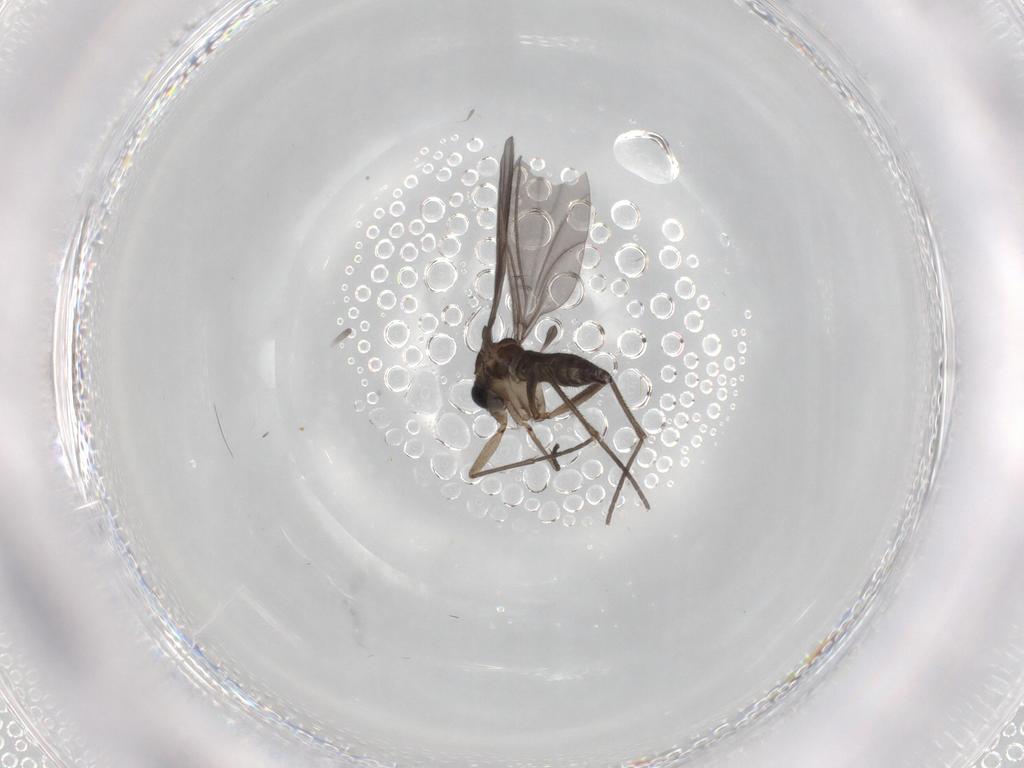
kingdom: Animalia
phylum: Arthropoda
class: Insecta
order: Diptera
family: Sciaridae
